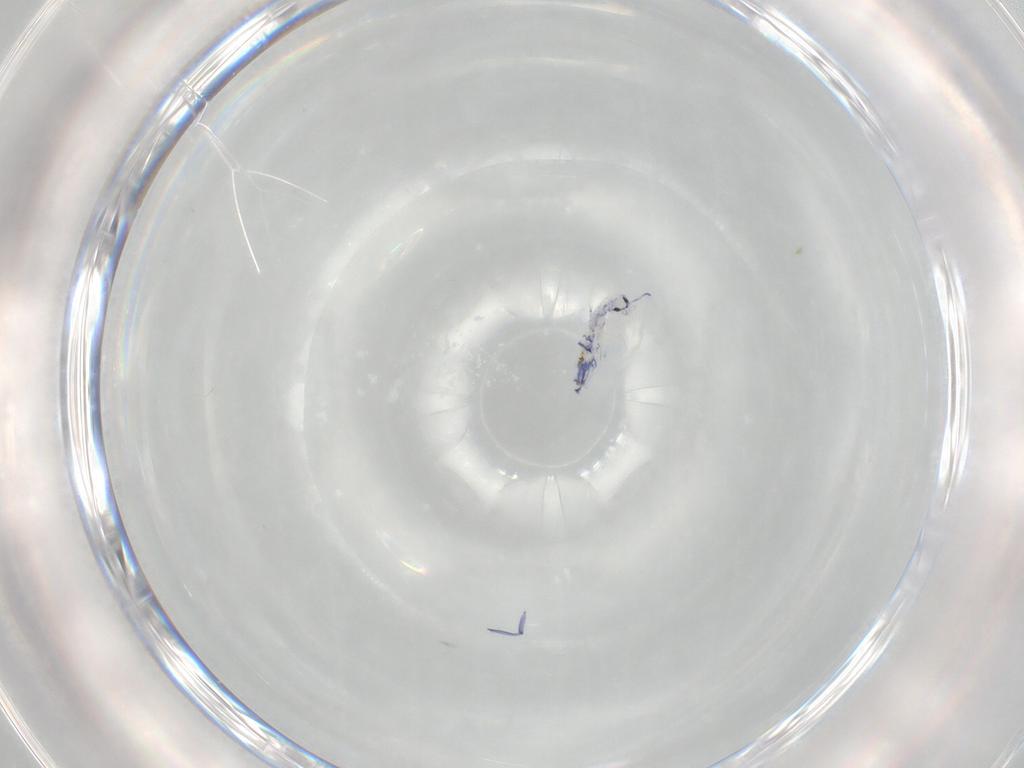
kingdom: Animalia
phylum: Arthropoda
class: Collembola
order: Entomobryomorpha
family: Entomobryidae
